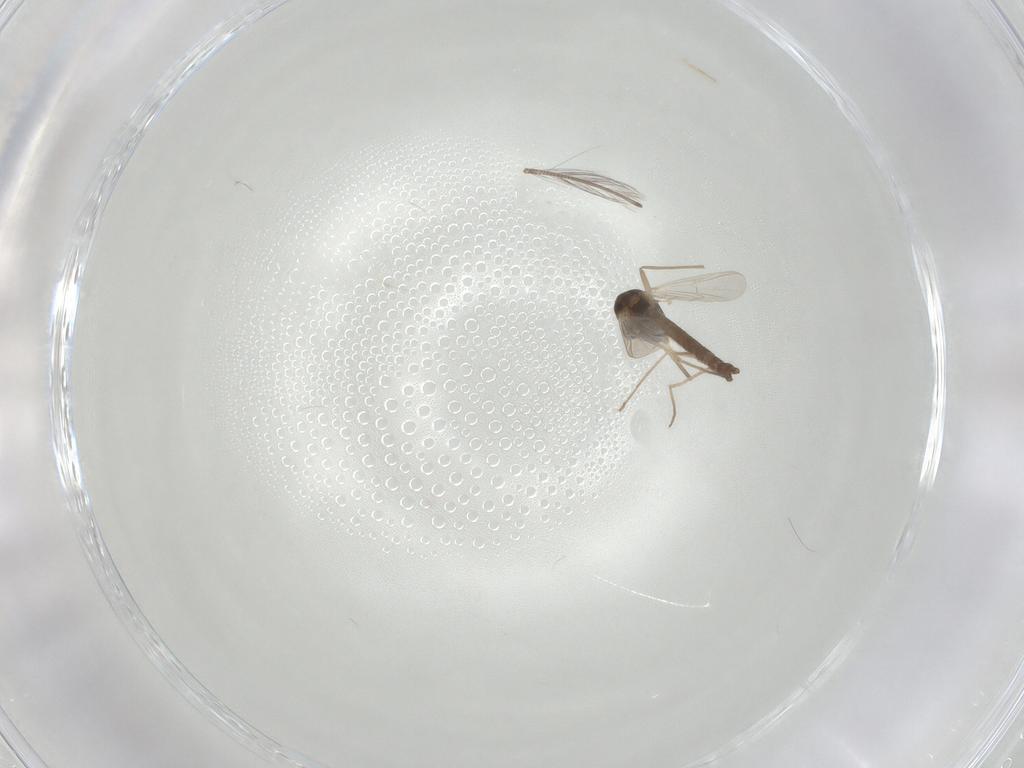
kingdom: Animalia
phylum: Arthropoda
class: Insecta
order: Diptera
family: Chironomidae
